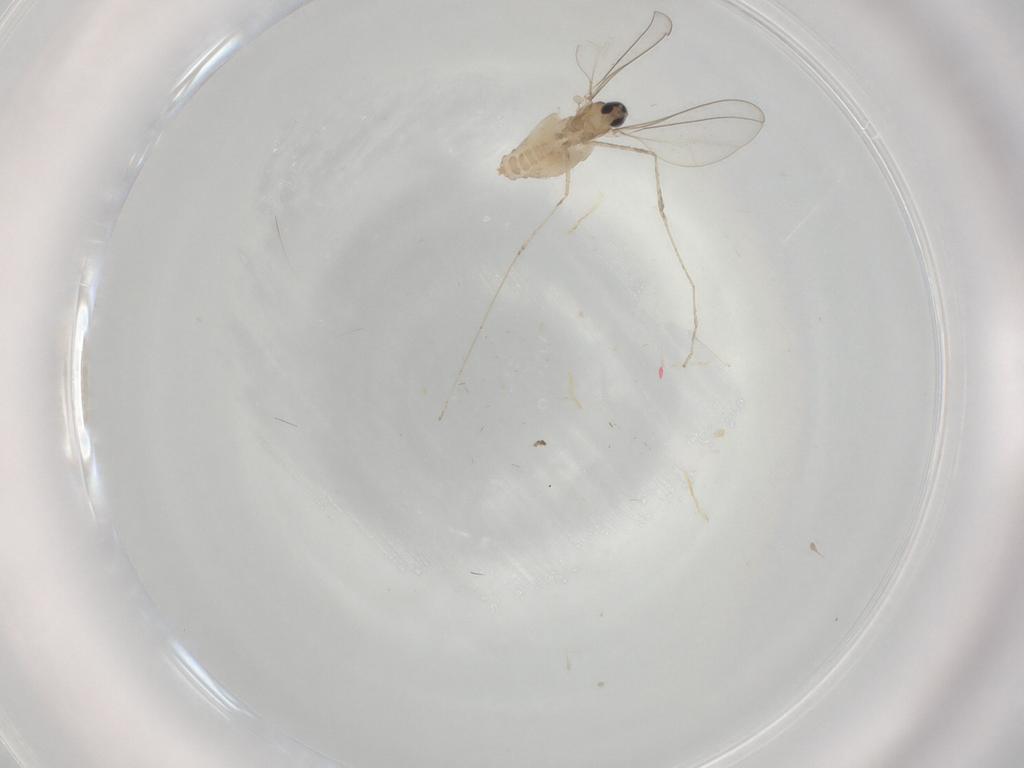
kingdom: Animalia
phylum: Arthropoda
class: Insecta
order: Diptera
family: Cecidomyiidae
